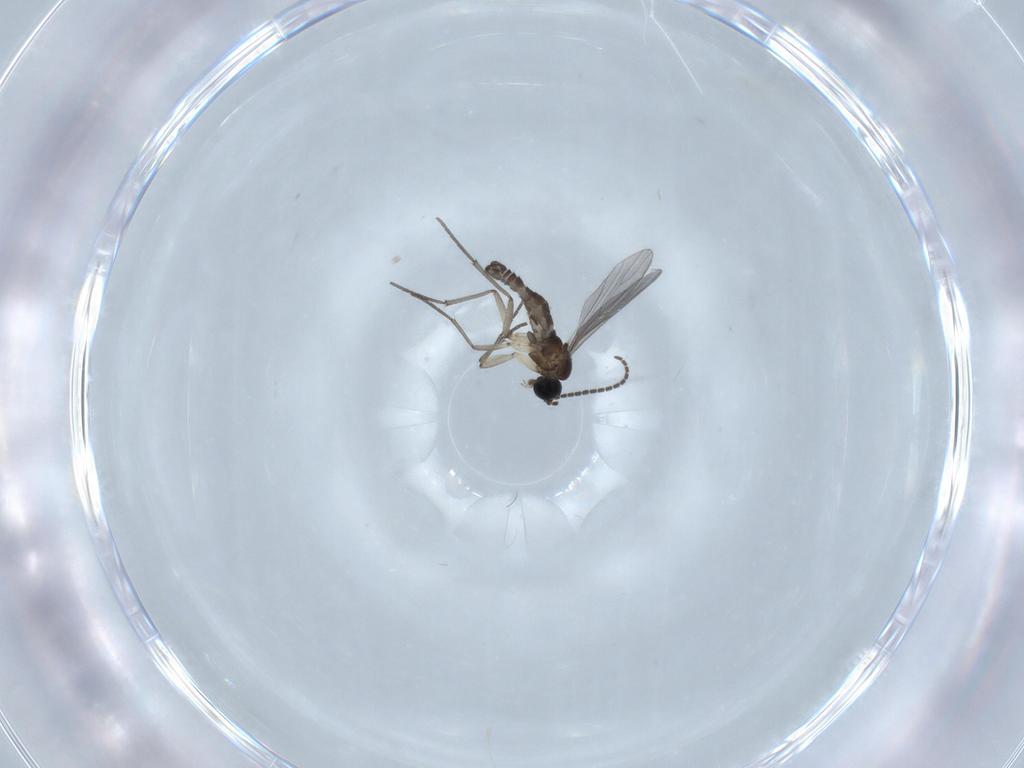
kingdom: Animalia
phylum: Arthropoda
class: Insecta
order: Diptera
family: Sciaridae
